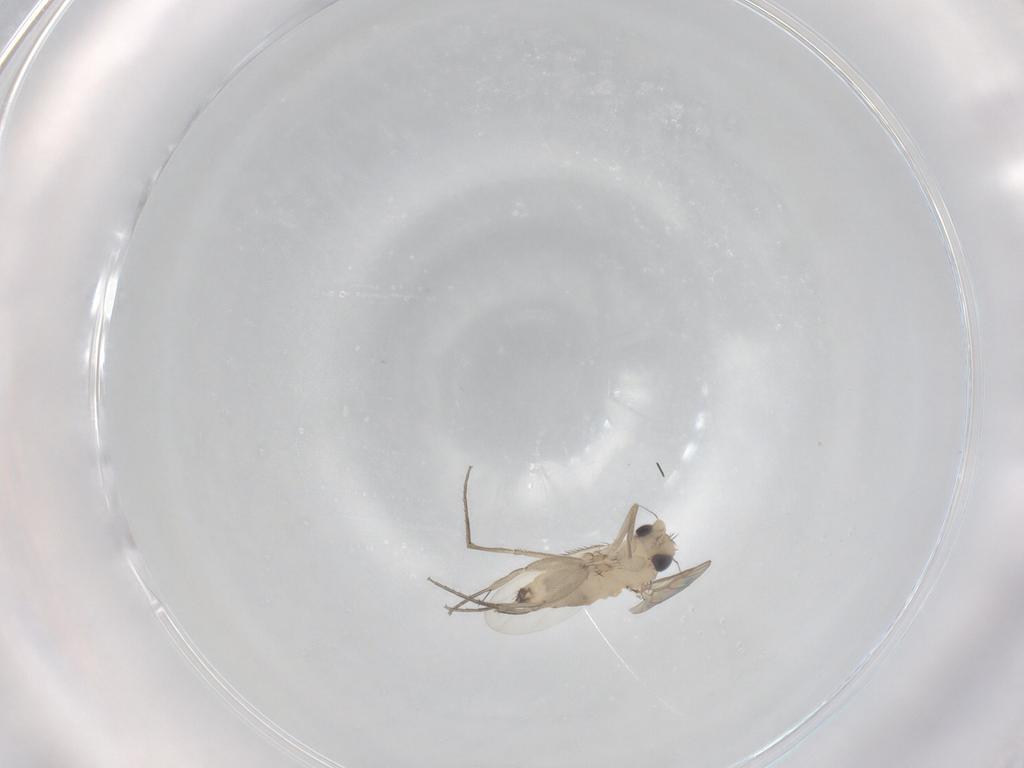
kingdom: Animalia
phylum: Arthropoda
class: Insecta
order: Diptera
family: Phoridae
